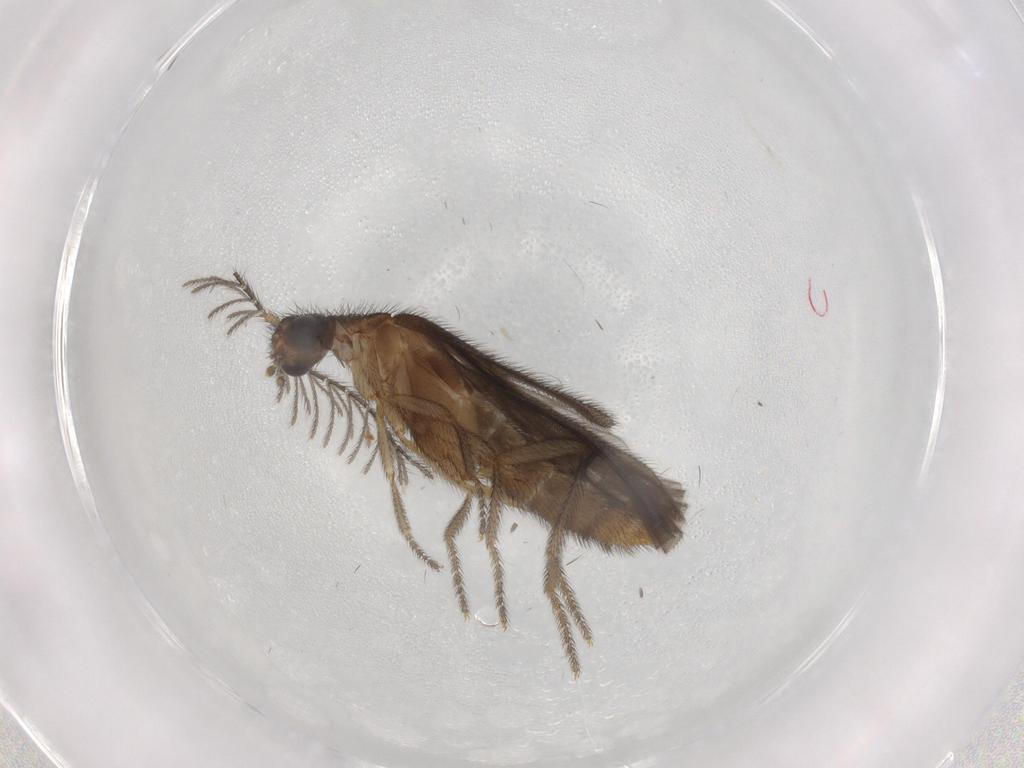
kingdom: Animalia
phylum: Arthropoda
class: Insecta
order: Coleoptera
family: Phengodidae
